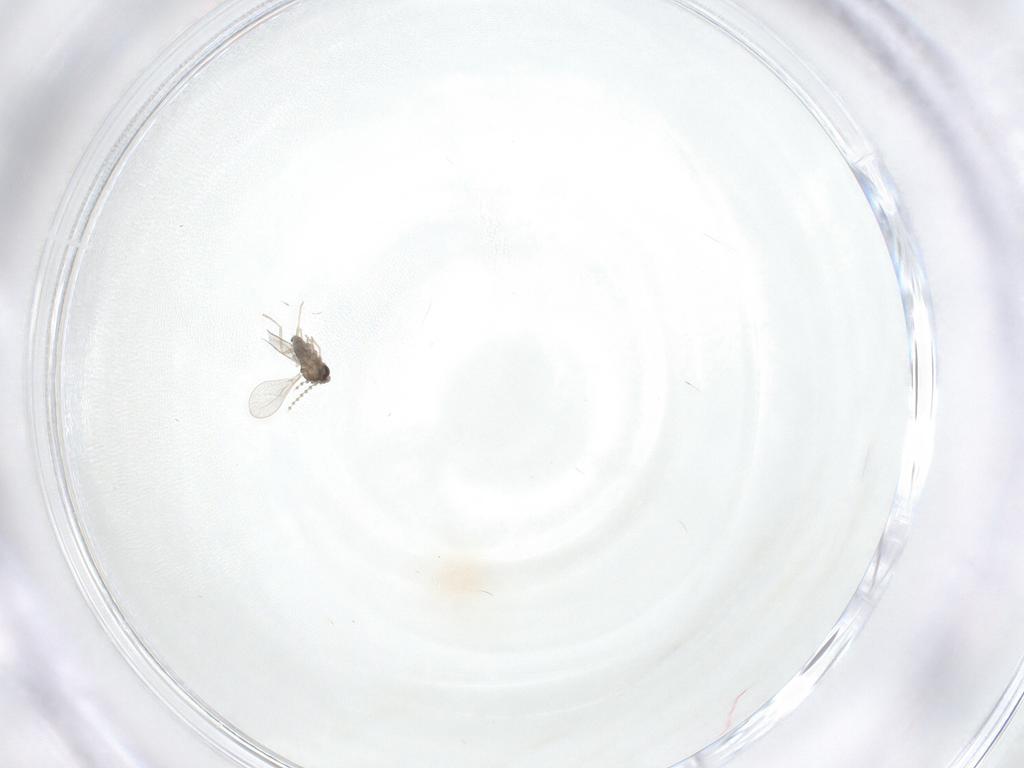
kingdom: Animalia
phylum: Arthropoda
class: Insecta
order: Diptera
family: Cecidomyiidae
